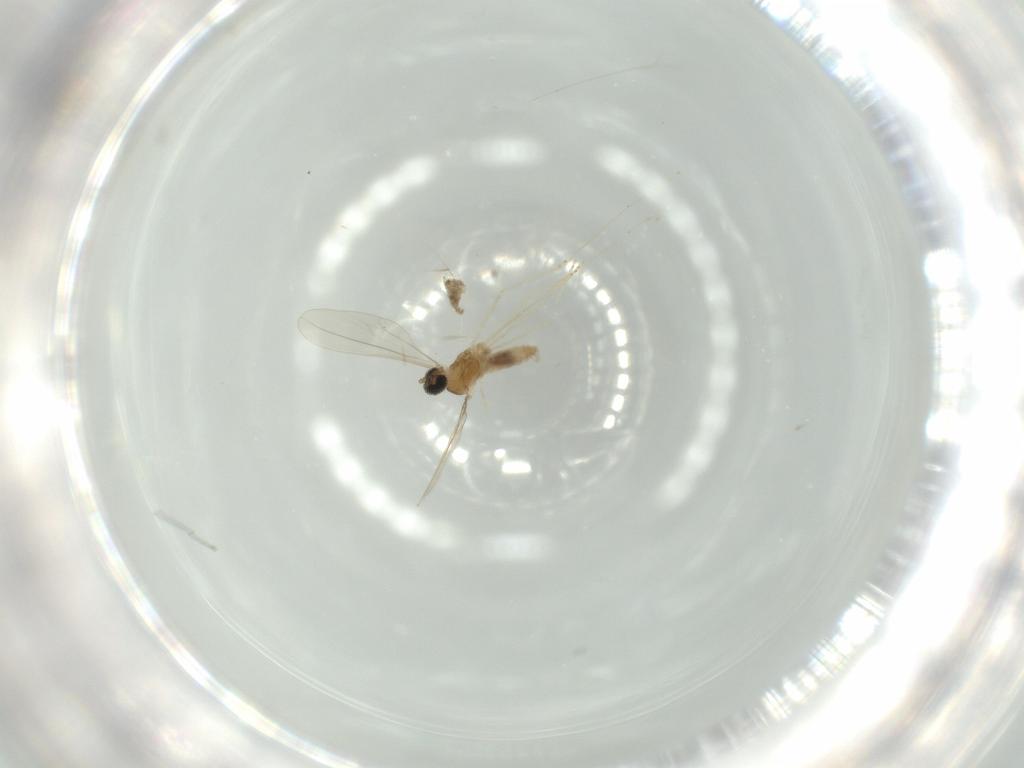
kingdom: Animalia
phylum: Arthropoda
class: Insecta
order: Diptera
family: Cecidomyiidae
